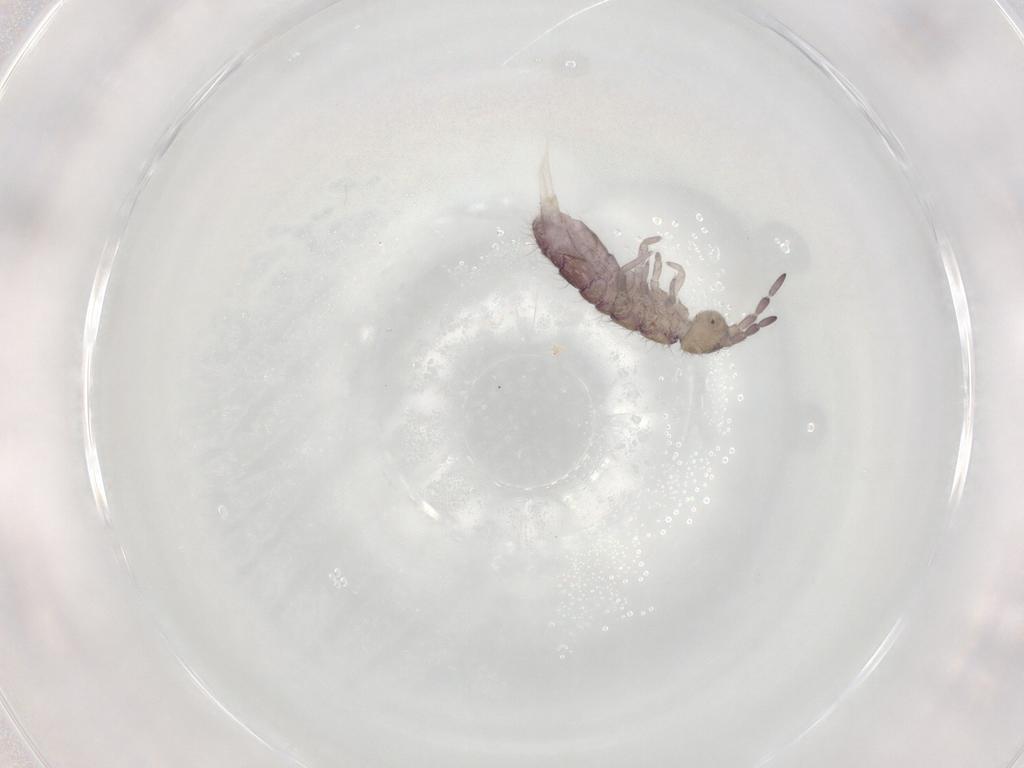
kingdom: Animalia
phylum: Arthropoda
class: Collembola
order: Entomobryomorpha
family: Isotomidae
